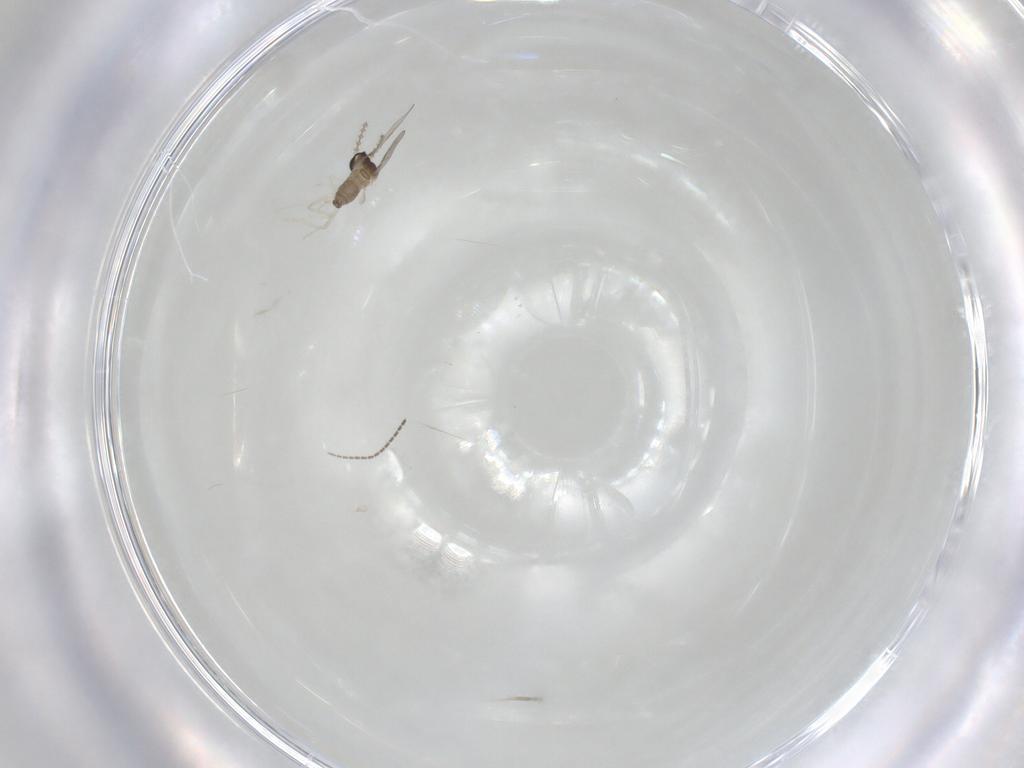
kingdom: Animalia
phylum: Arthropoda
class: Insecta
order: Diptera
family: Cecidomyiidae
